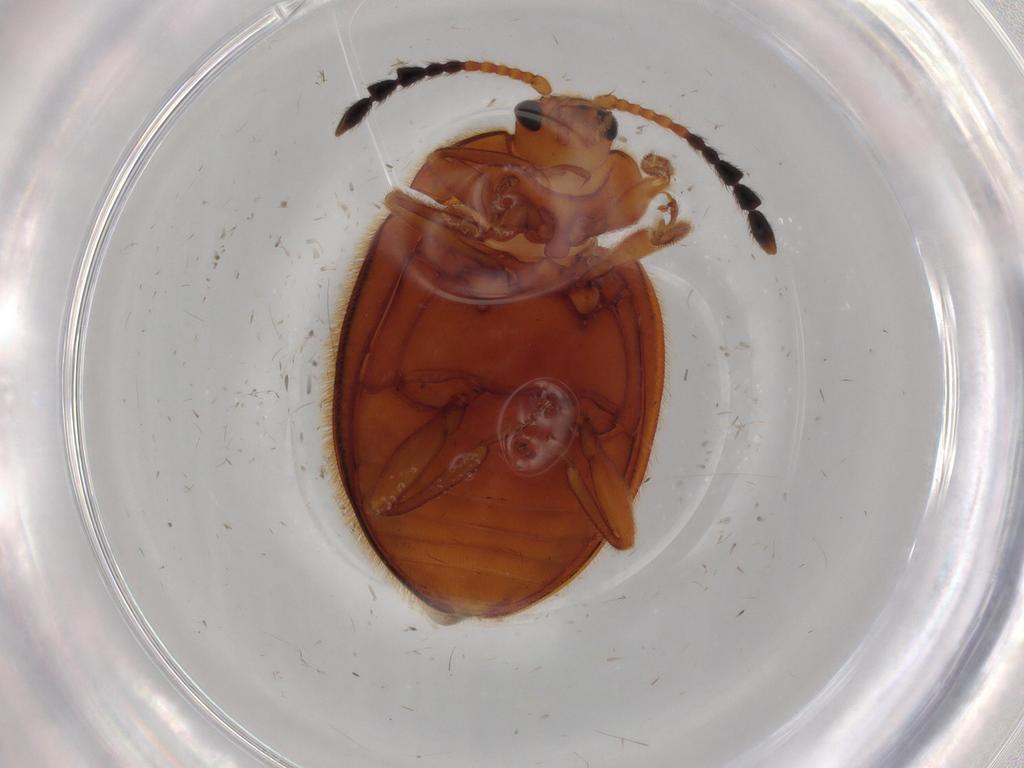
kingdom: Animalia
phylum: Arthropoda
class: Insecta
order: Coleoptera
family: Endomychidae
